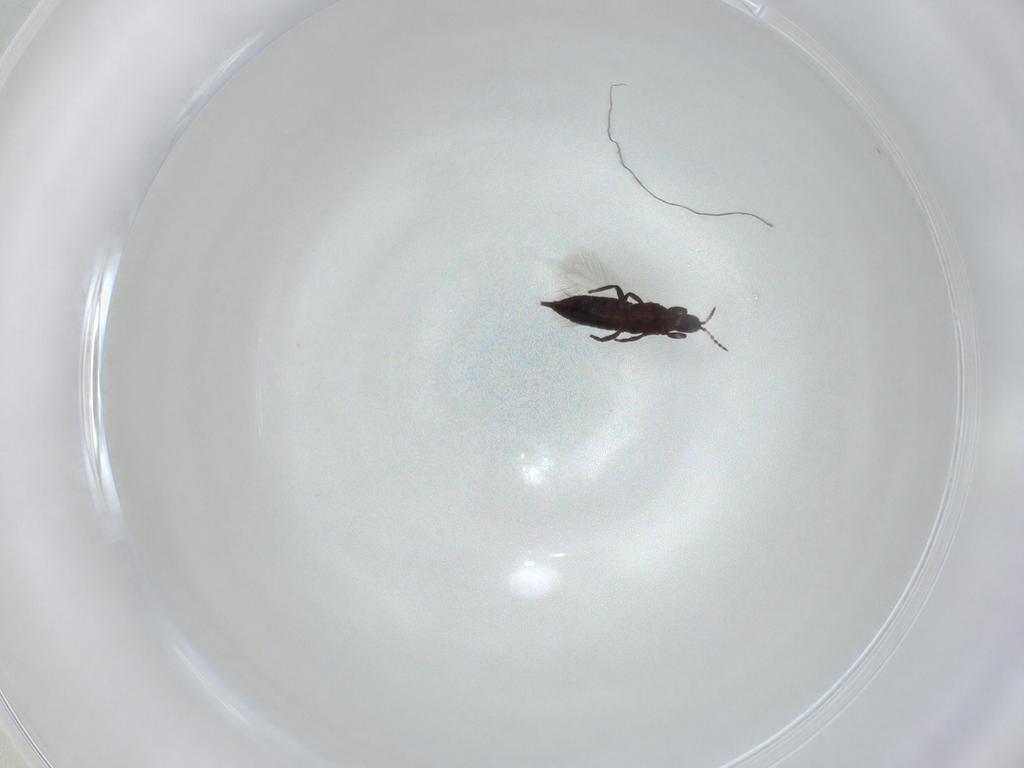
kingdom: Animalia
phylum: Arthropoda
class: Insecta
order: Thysanoptera
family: Phlaeothripidae
